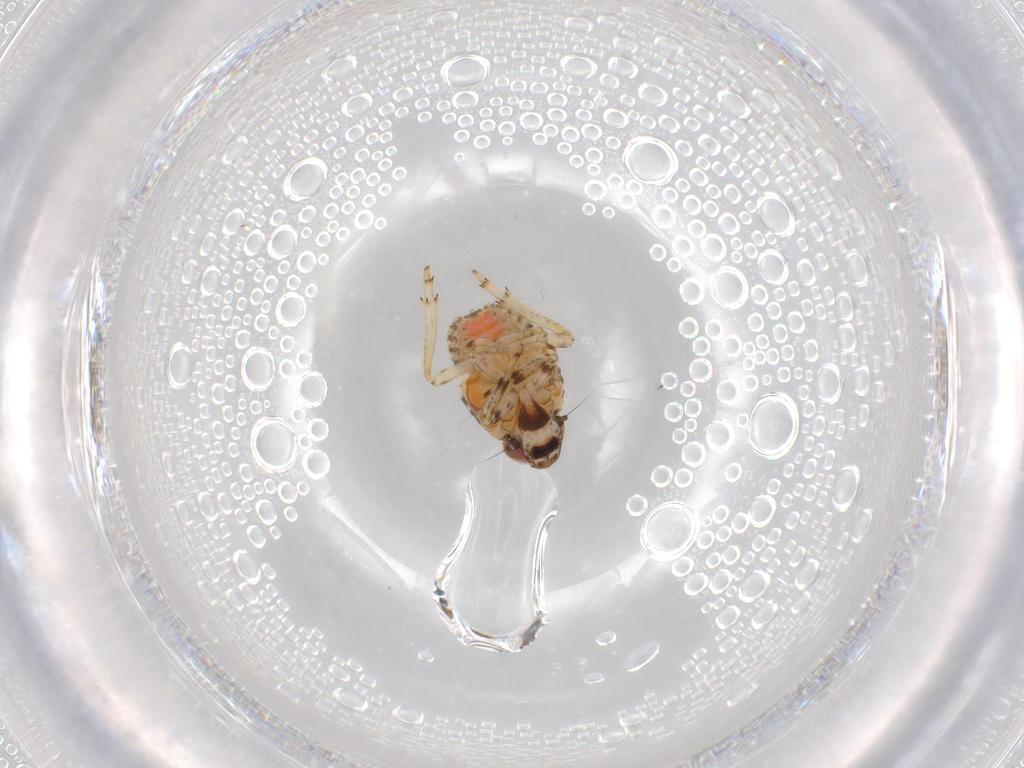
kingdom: Animalia
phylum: Arthropoda
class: Insecta
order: Hemiptera
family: Issidae
